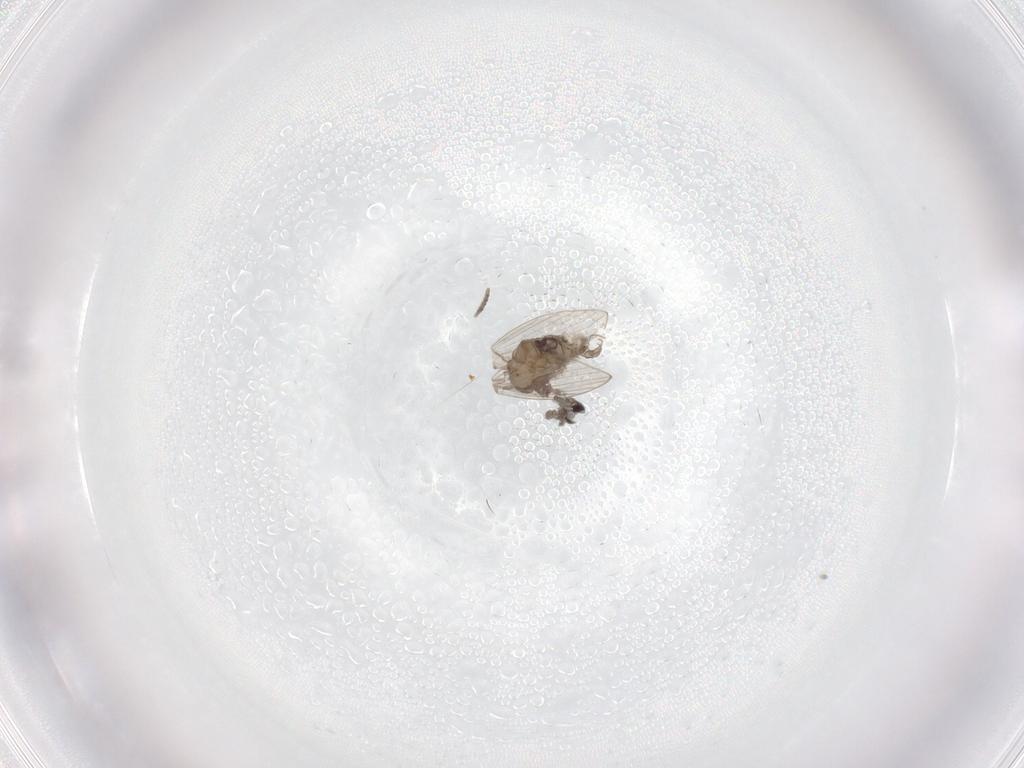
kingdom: Animalia
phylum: Arthropoda
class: Insecta
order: Diptera
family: Psychodidae
